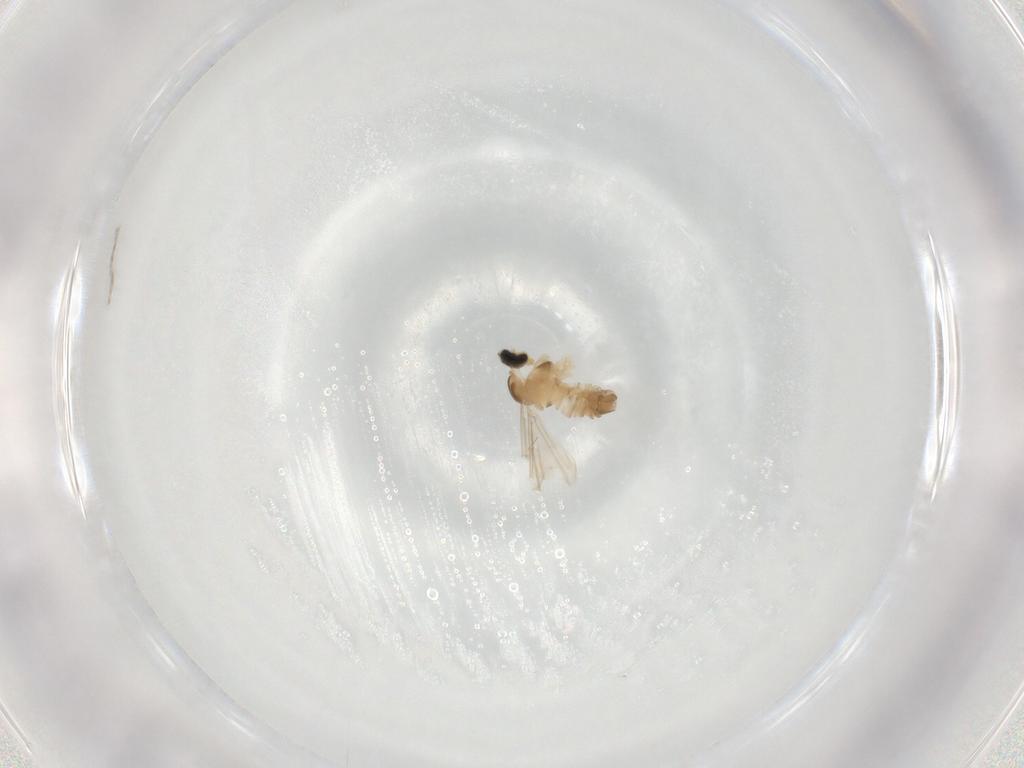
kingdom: Animalia
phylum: Arthropoda
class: Insecta
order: Diptera
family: Cecidomyiidae
